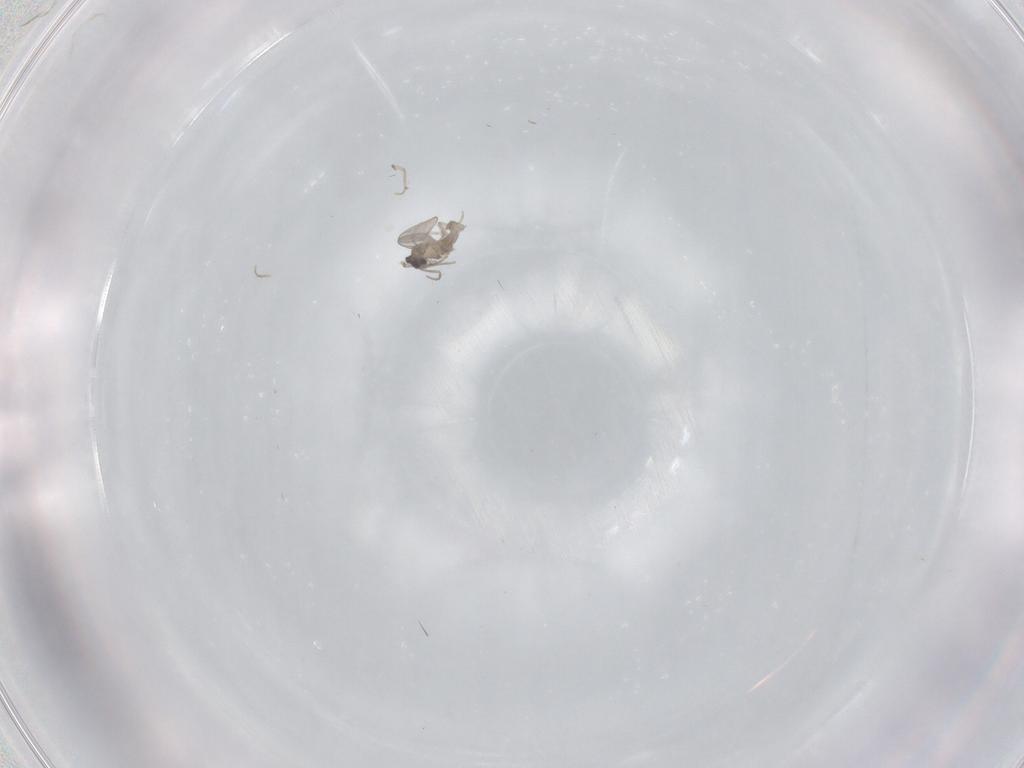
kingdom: Animalia
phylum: Arthropoda
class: Insecta
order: Diptera
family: Cecidomyiidae
